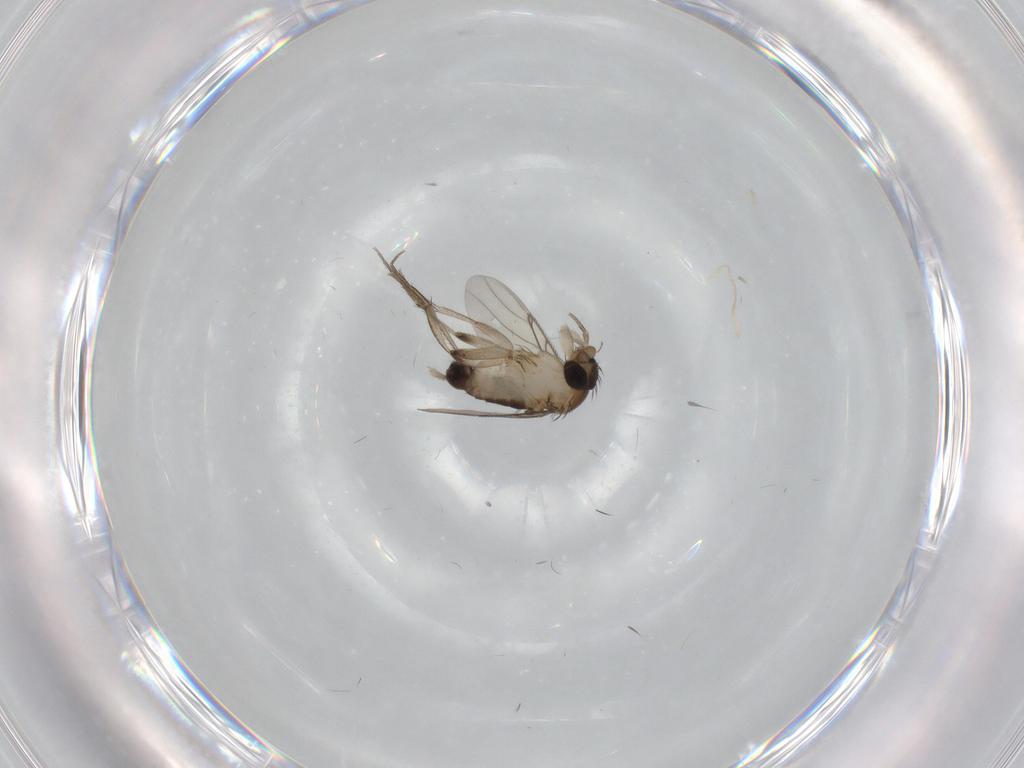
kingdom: Animalia
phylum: Arthropoda
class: Insecta
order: Diptera
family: Phoridae
